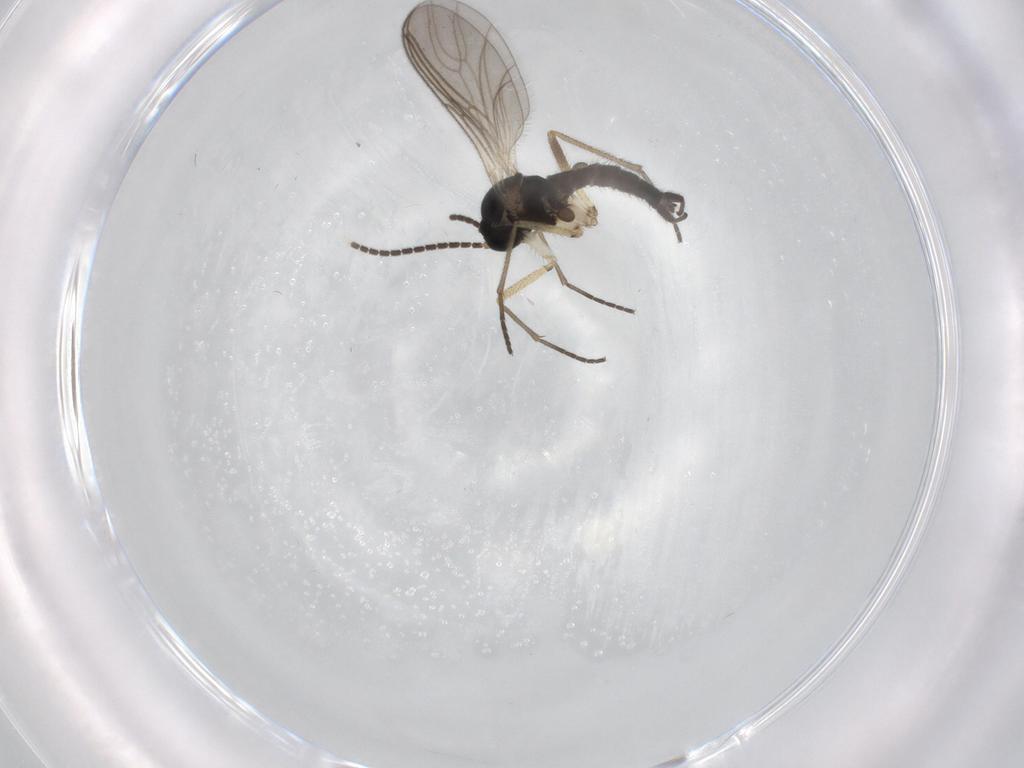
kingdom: Animalia
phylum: Arthropoda
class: Insecta
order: Diptera
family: Sciaridae
